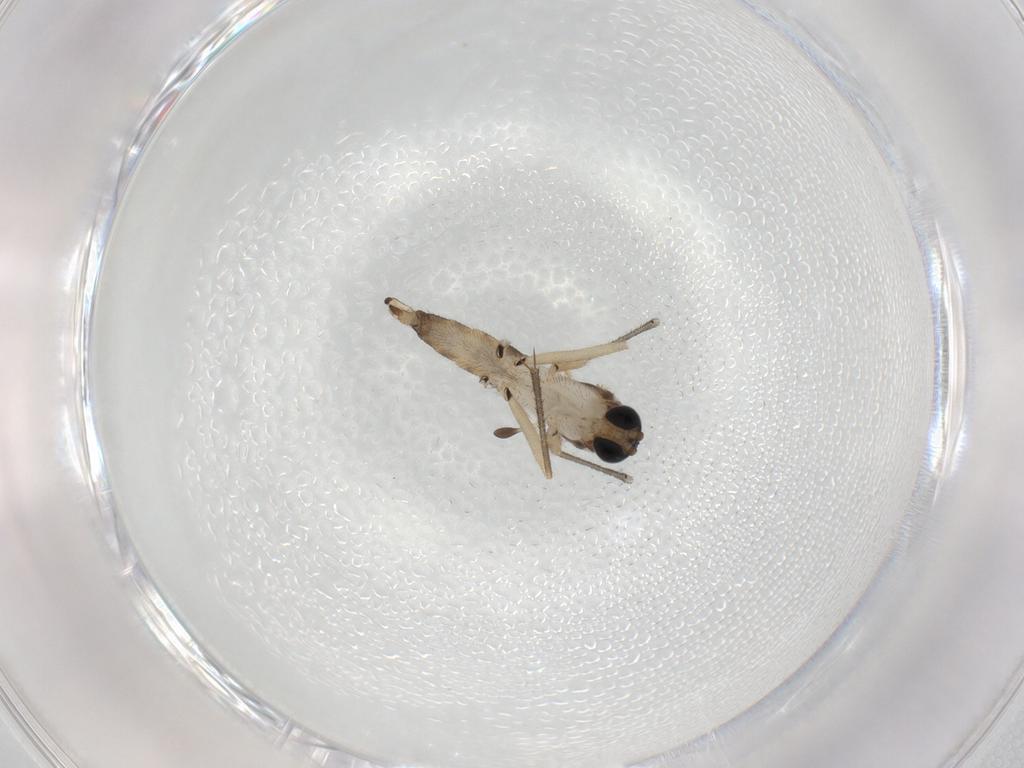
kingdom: Animalia
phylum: Arthropoda
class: Insecta
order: Diptera
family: Sciaridae
